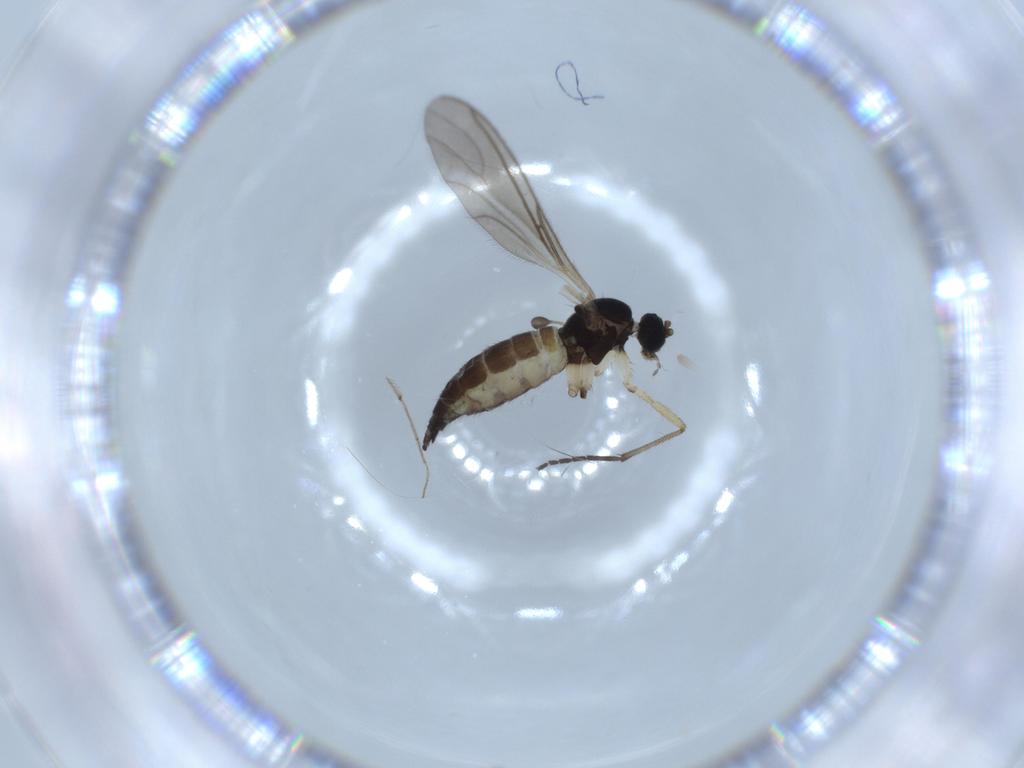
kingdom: Animalia
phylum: Arthropoda
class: Insecta
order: Diptera
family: Sciaridae
